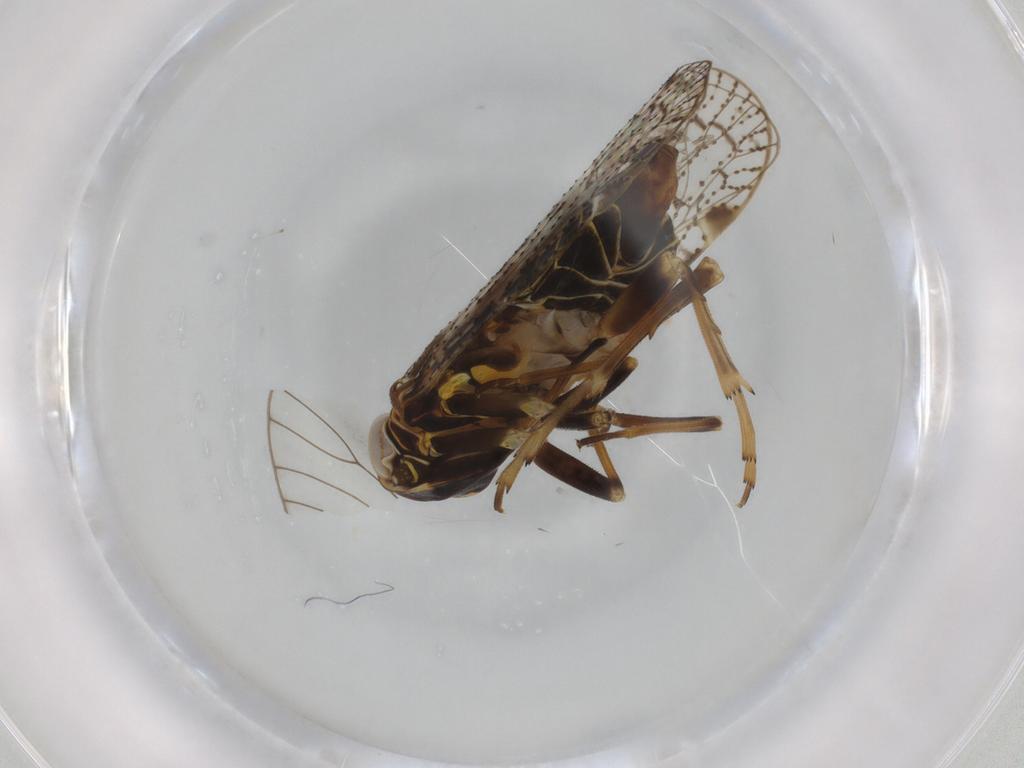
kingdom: Animalia
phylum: Arthropoda
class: Insecta
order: Hemiptera
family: Cixiidae
